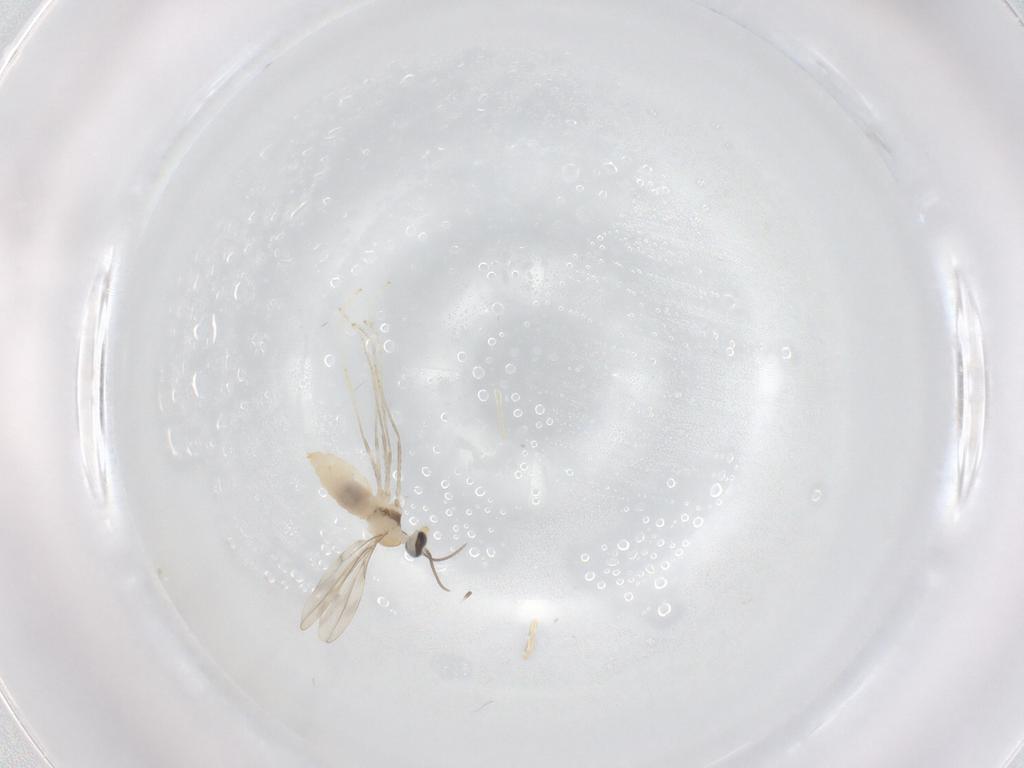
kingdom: Animalia
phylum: Arthropoda
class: Insecta
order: Diptera
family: Cecidomyiidae
